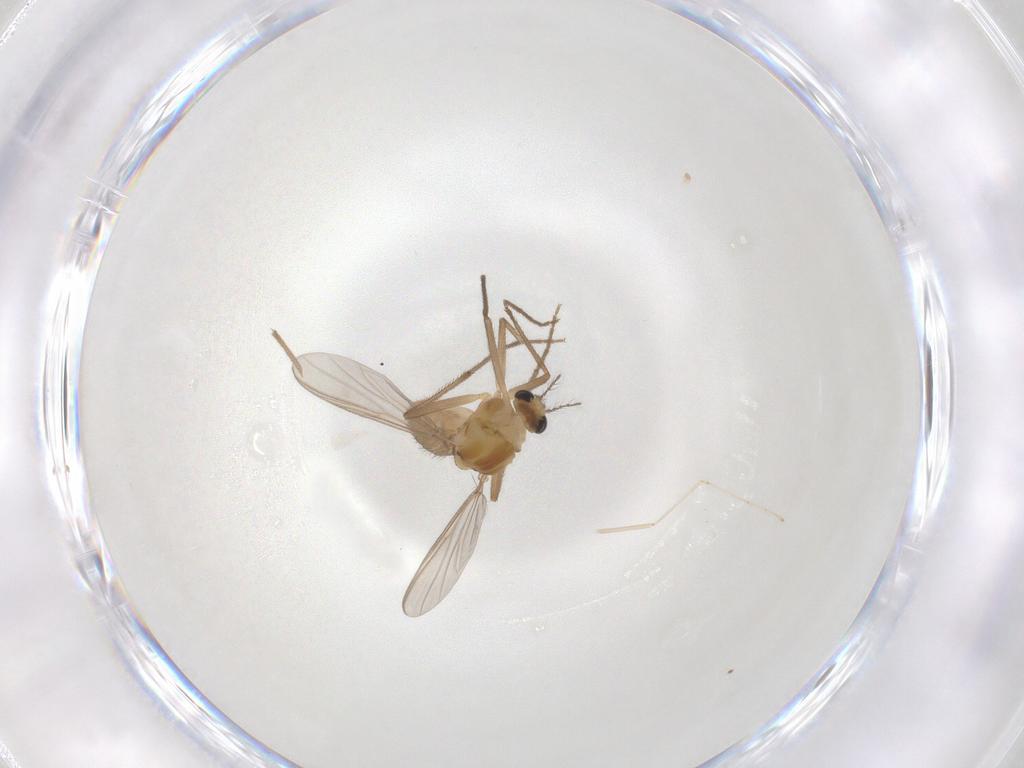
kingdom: Animalia
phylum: Arthropoda
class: Insecta
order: Diptera
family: Chironomidae
